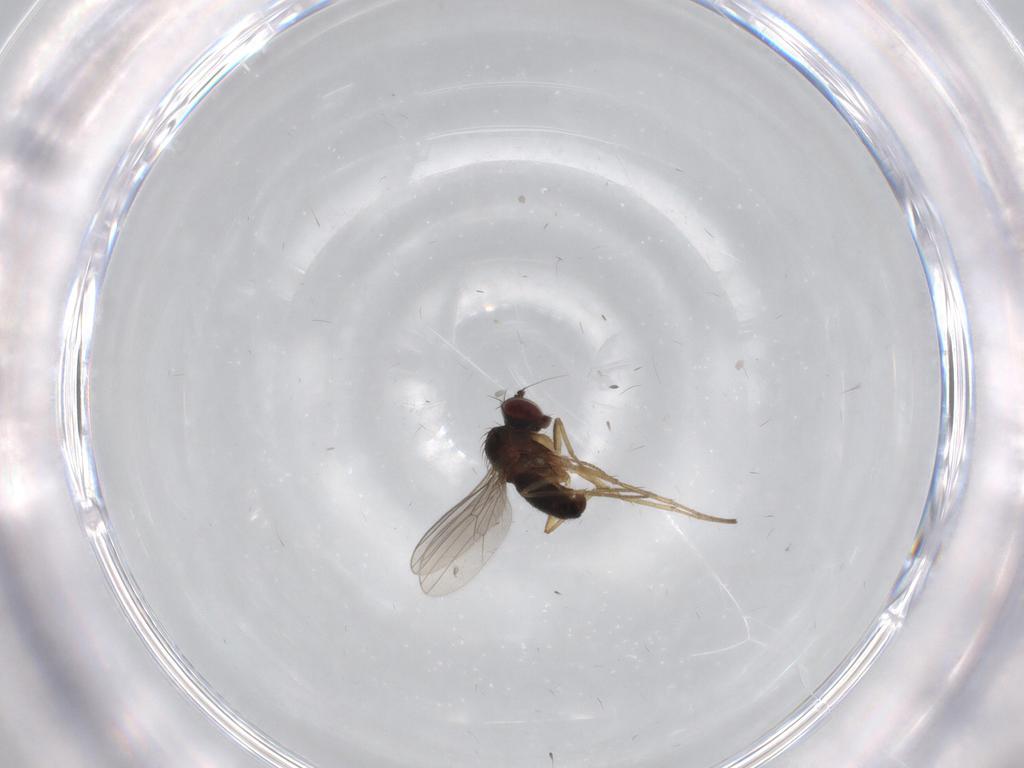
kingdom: Animalia
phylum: Arthropoda
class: Insecta
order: Diptera
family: Dolichopodidae
